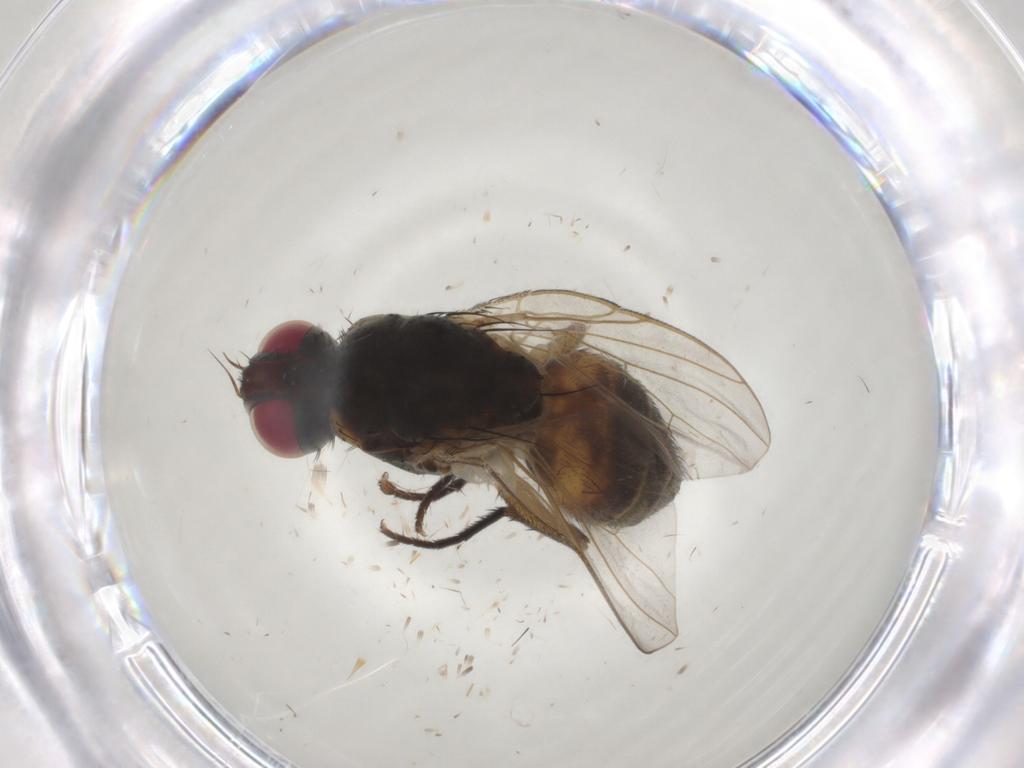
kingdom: Animalia
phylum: Arthropoda
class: Insecta
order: Diptera
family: Muscidae
